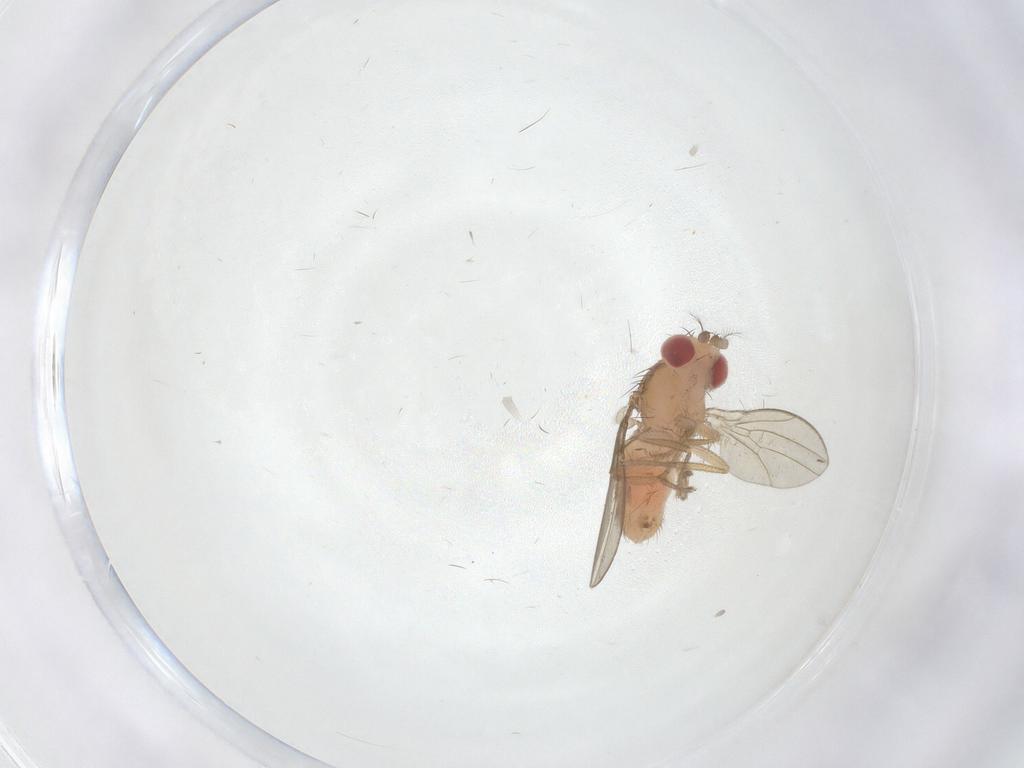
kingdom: Animalia
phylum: Arthropoda
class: Insecta
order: Diptera
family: Drosophilidae
